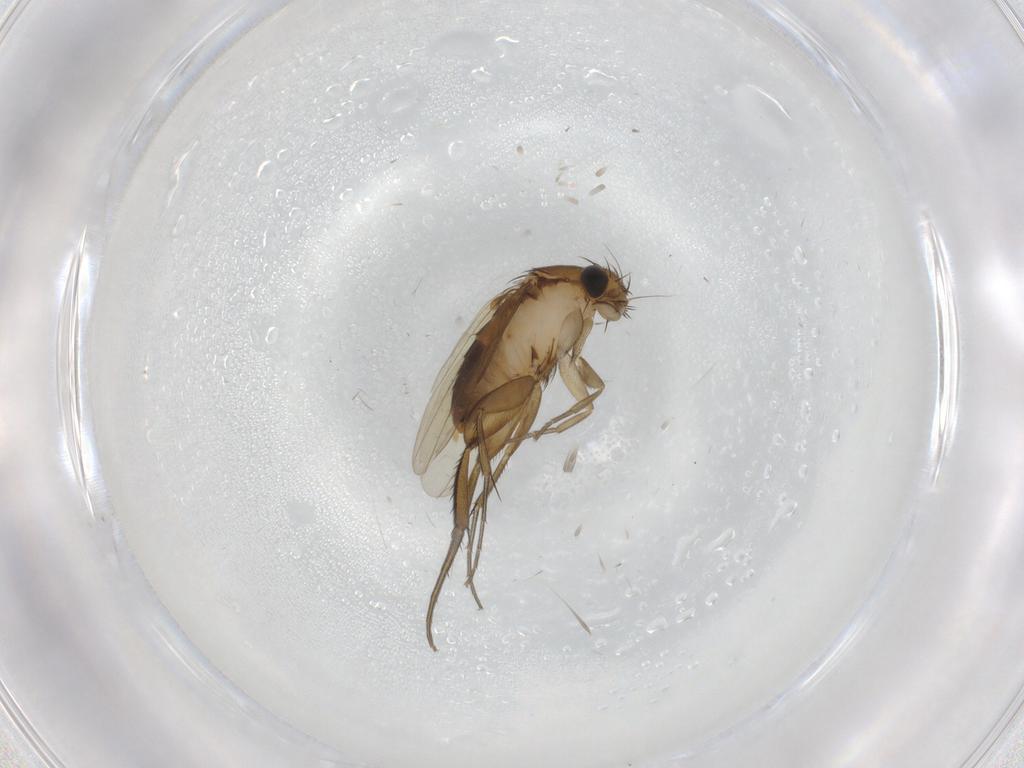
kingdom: Animalia
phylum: Arthropoda
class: Insecta
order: Diptera
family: Phoridae
